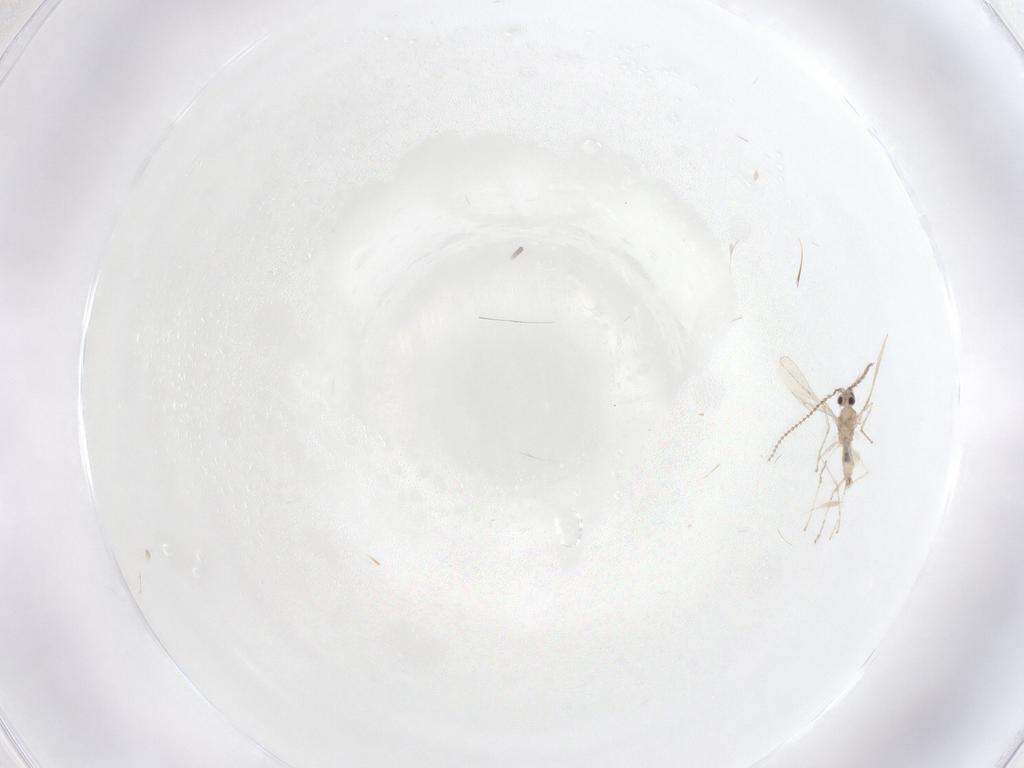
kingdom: Animalia
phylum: Arthropoda
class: Insecta
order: Diptera
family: Cecidomyiidae
